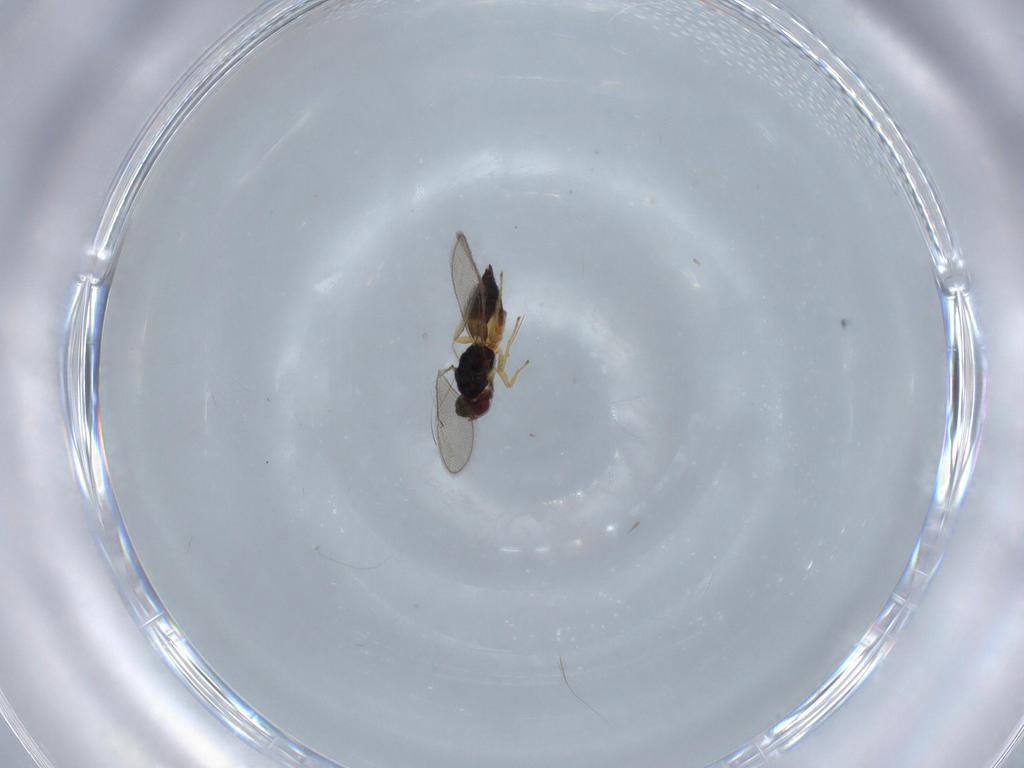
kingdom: Animalia
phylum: Arthropoda
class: Insecta
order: Hymenoptera
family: Eulophidae
